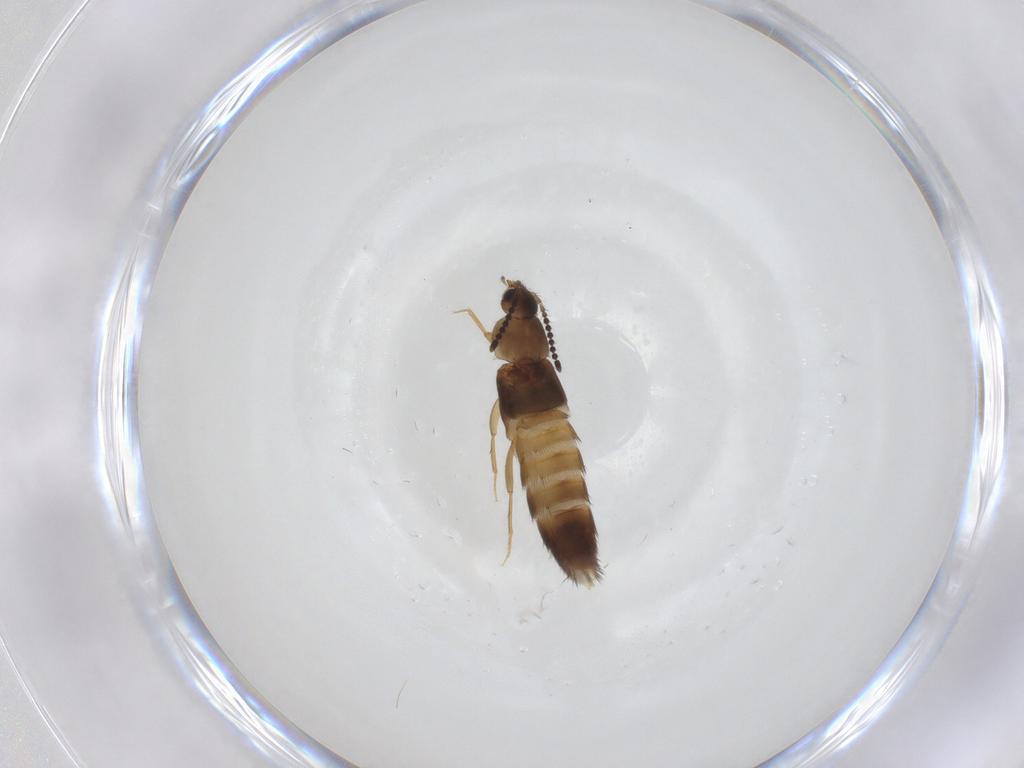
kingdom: Animalia
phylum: Arthropoda
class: Insecta
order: Coleoptera
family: Staphylinidae
